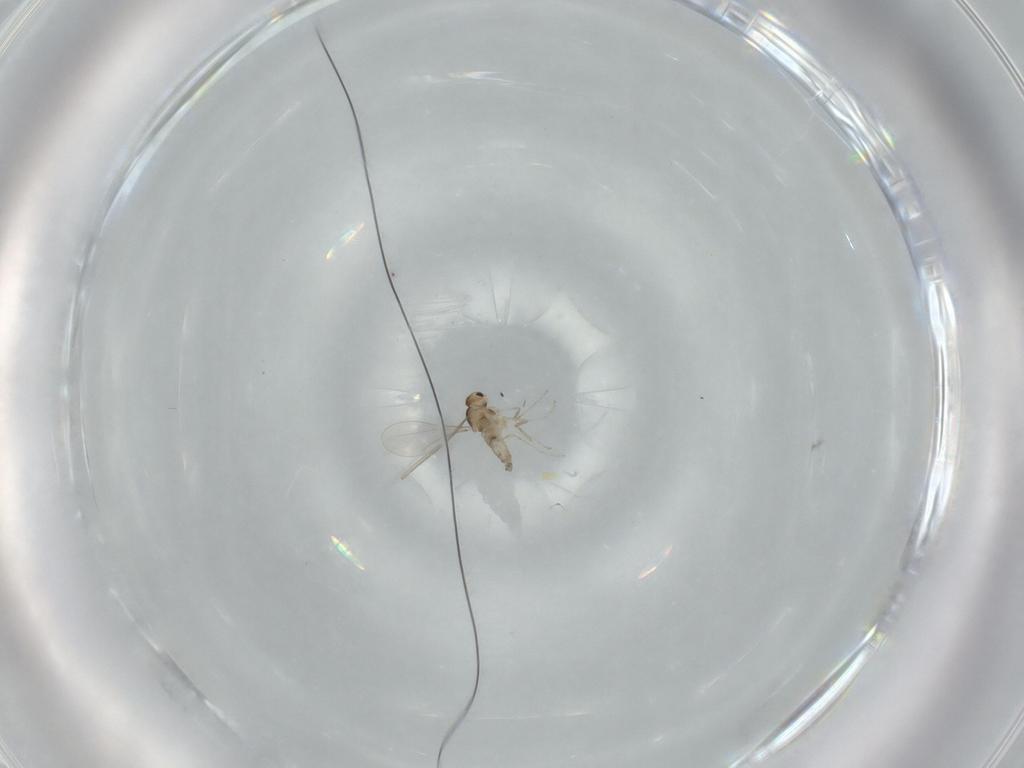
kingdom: Animalia
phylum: Arthropoda
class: Insecta
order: Diptera
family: Cecidomyiidae
